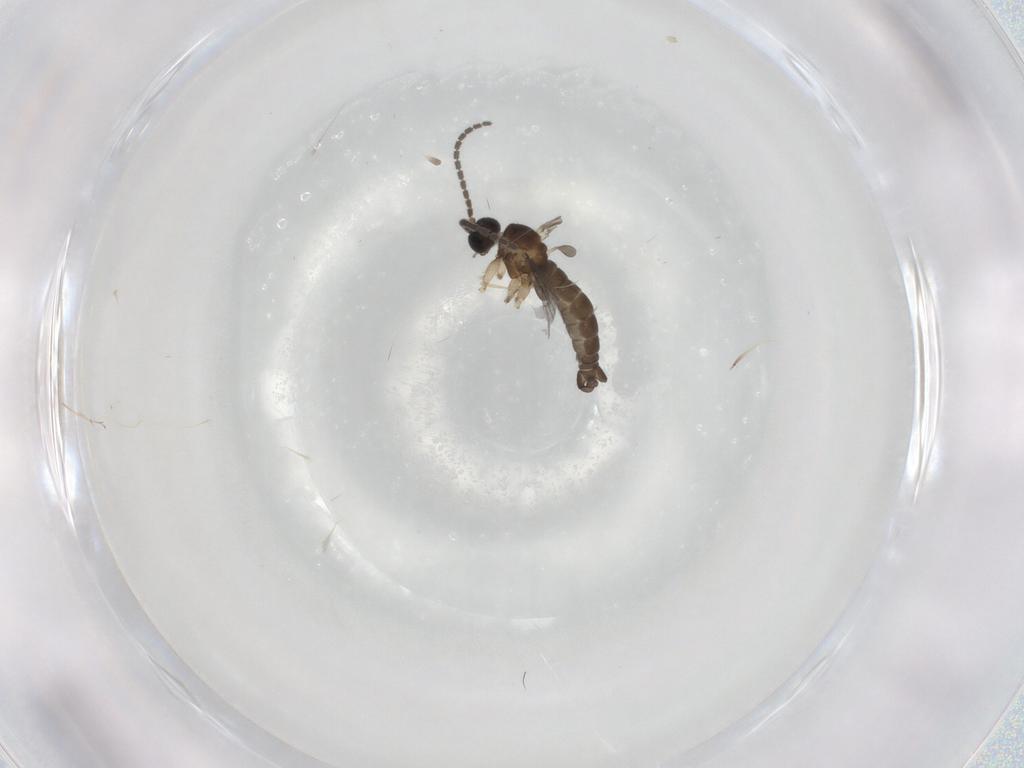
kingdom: Animalia
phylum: Arthropoda
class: Insecta
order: Diptera
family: Sciaridae
